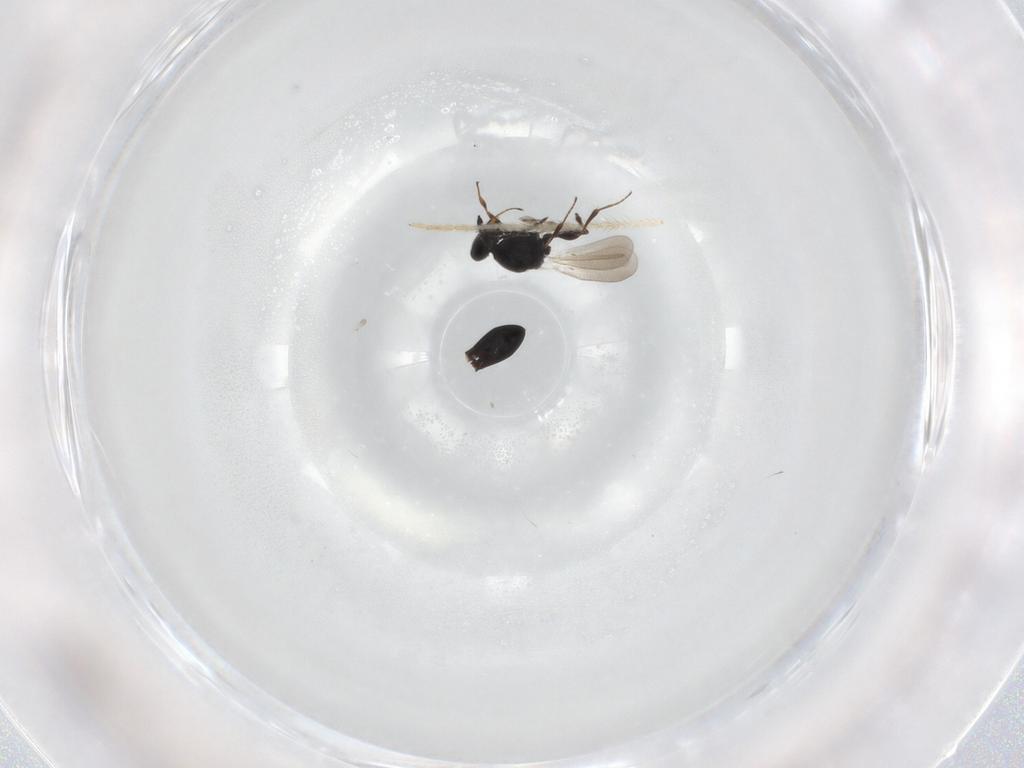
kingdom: Animalia
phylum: Arthropoda
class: Insecta
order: Hymenoptera
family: Platygastridae
